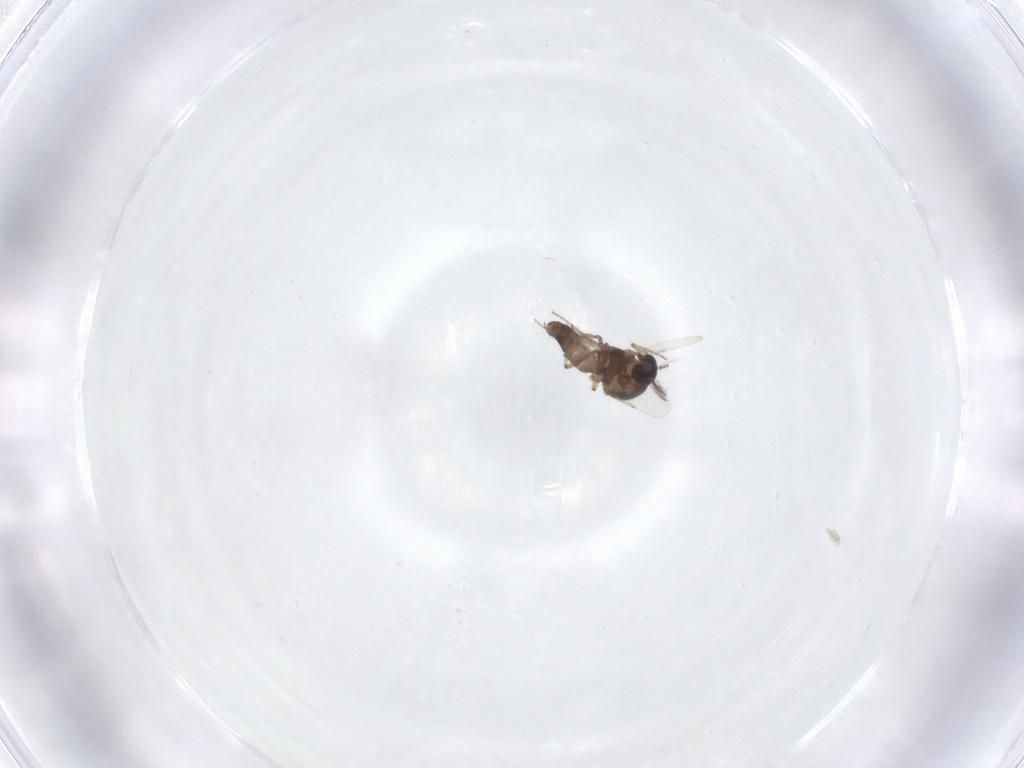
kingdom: Animalia
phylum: Arthropoda
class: Insecta
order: Diptera
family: Ceratopogonidae
